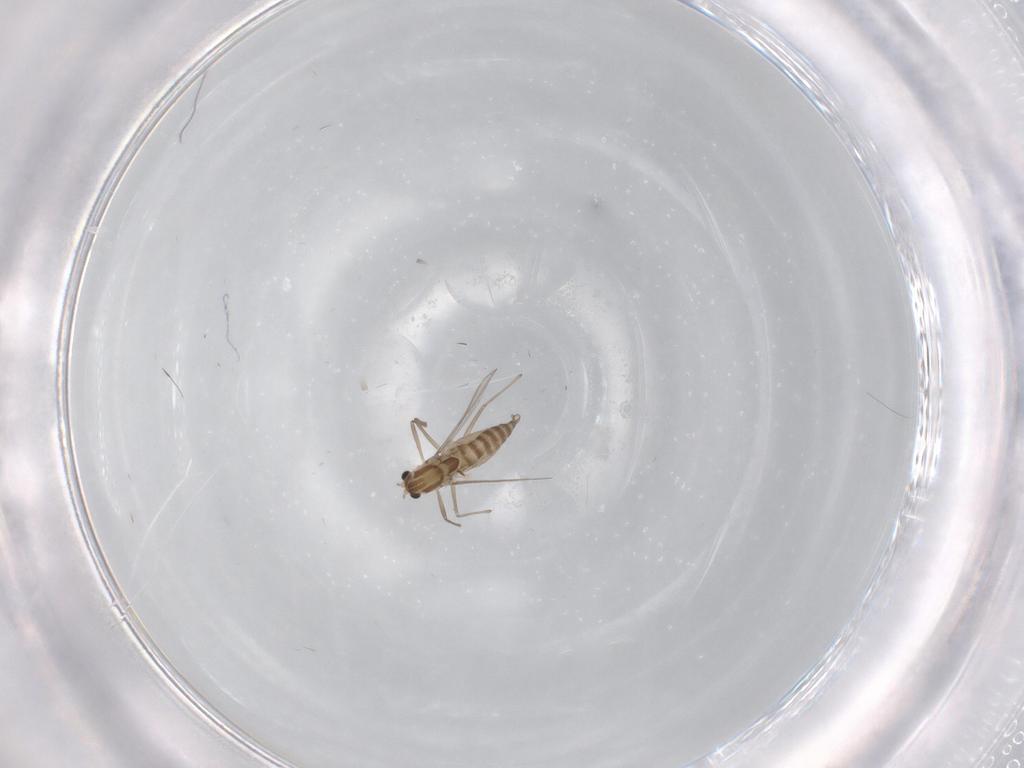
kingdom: Animalia
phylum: Arthropoda
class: Insecta
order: Diptera
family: Chironomidae
